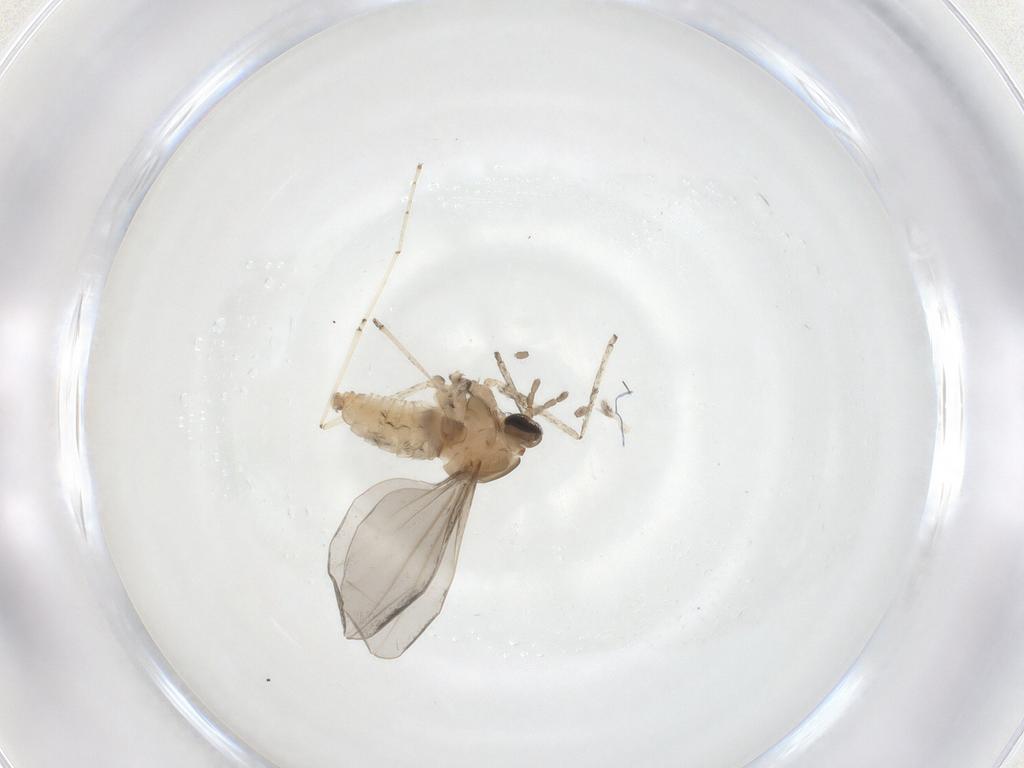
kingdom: Animalia
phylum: Arthropoda
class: Insecta
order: Diptera
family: Cecidomyiidae
